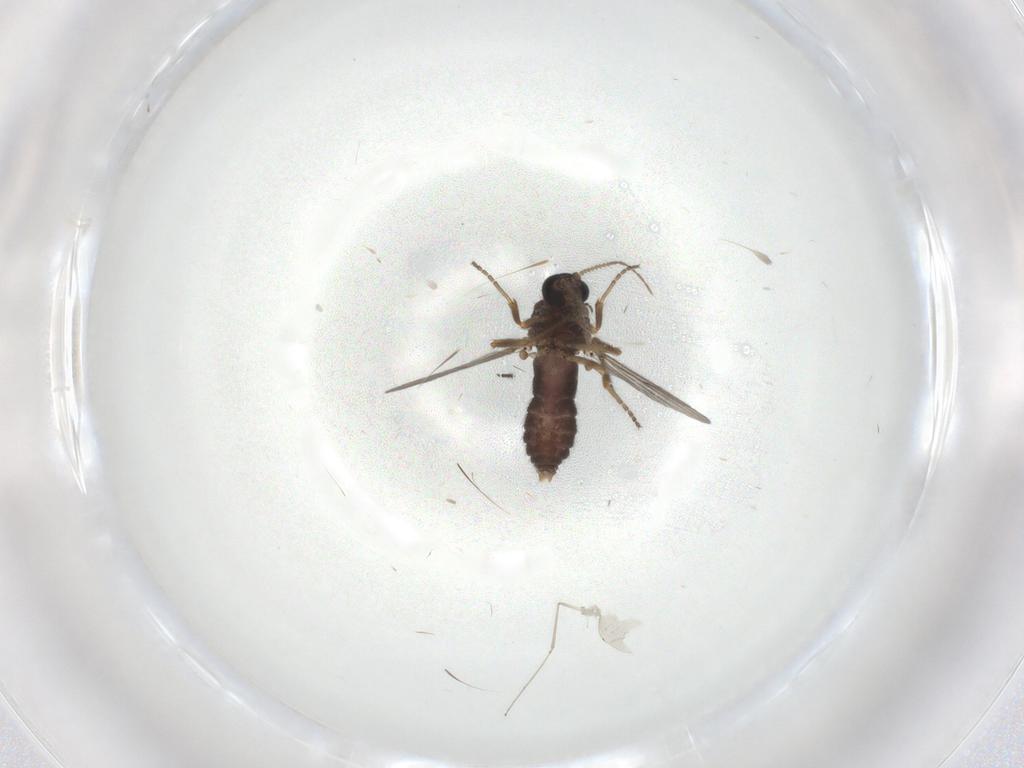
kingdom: Animalia
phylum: Arthropoda
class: Insecta
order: Diptera
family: Ceratopogonidae
